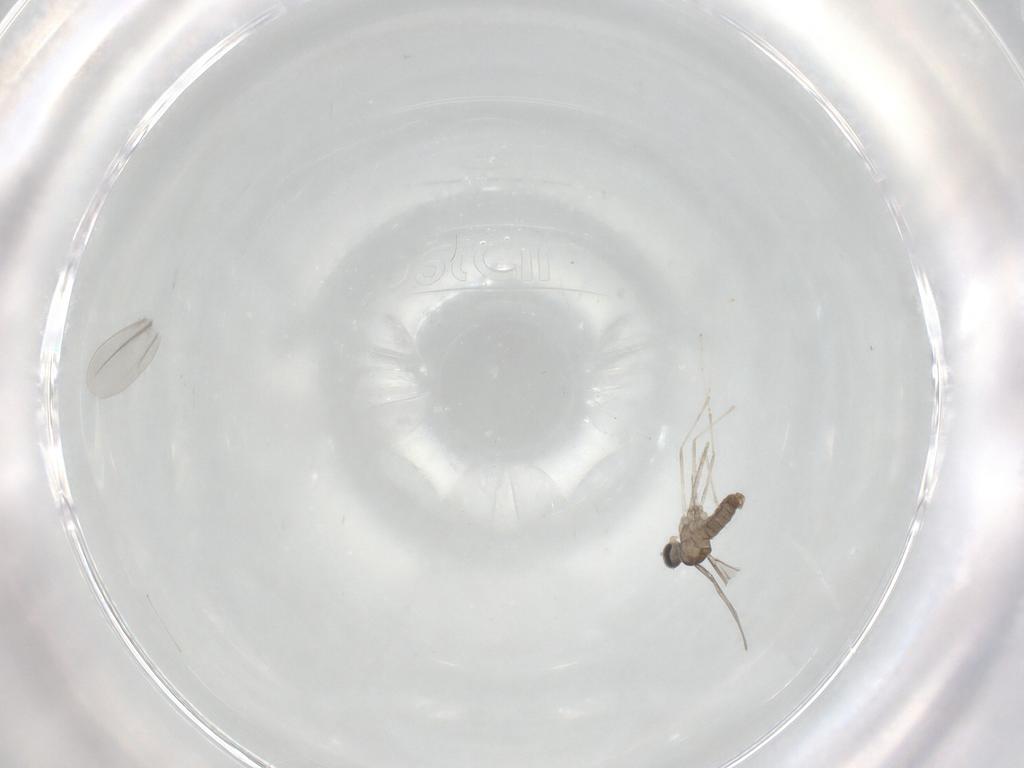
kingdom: Animalia
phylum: Arthropoda
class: Insecta
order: Diptera
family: Cecidomyiidae
